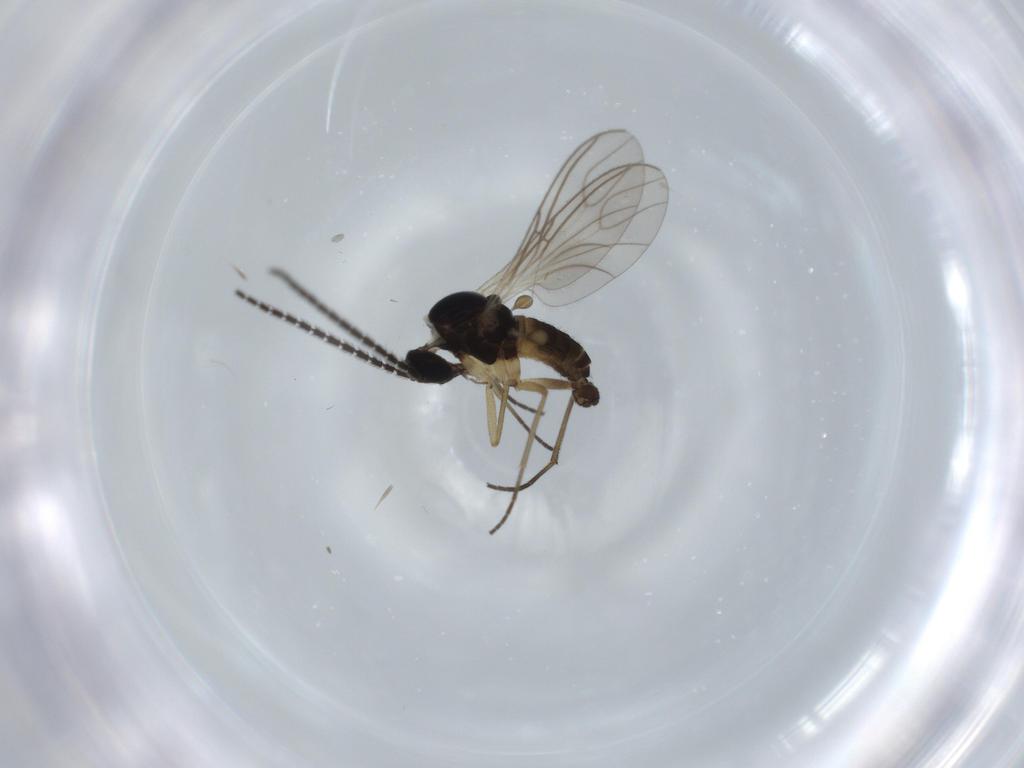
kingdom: Animalia
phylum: Arthropoda
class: Insecta
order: Diptera
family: Sciaridae
